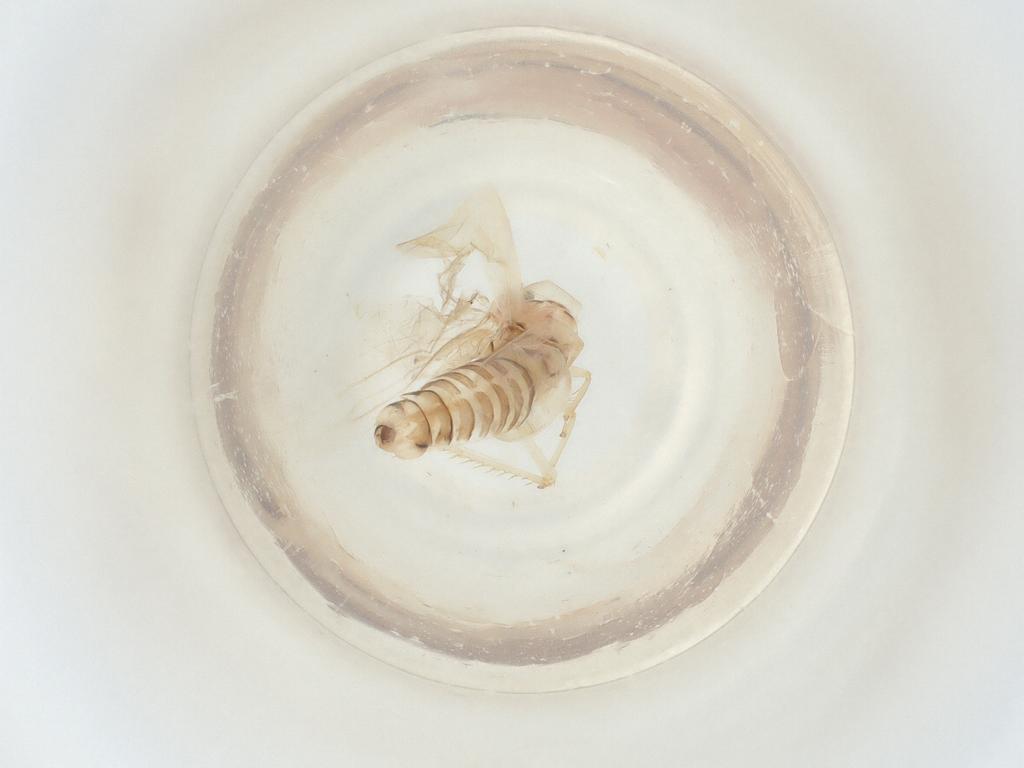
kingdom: Animalia
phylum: Arthropoda
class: Insecta
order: Hemiptera
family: Cicadellidae
